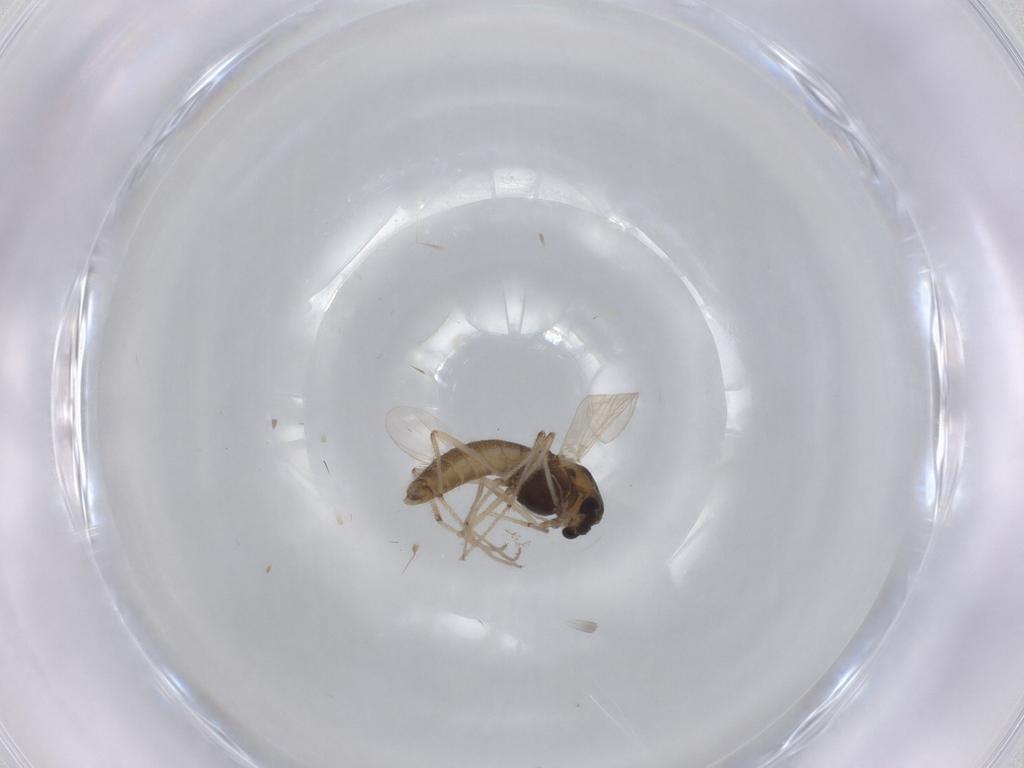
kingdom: Animalia
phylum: Arthropoda
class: Insecta
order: Diptera
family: Chironomidae
